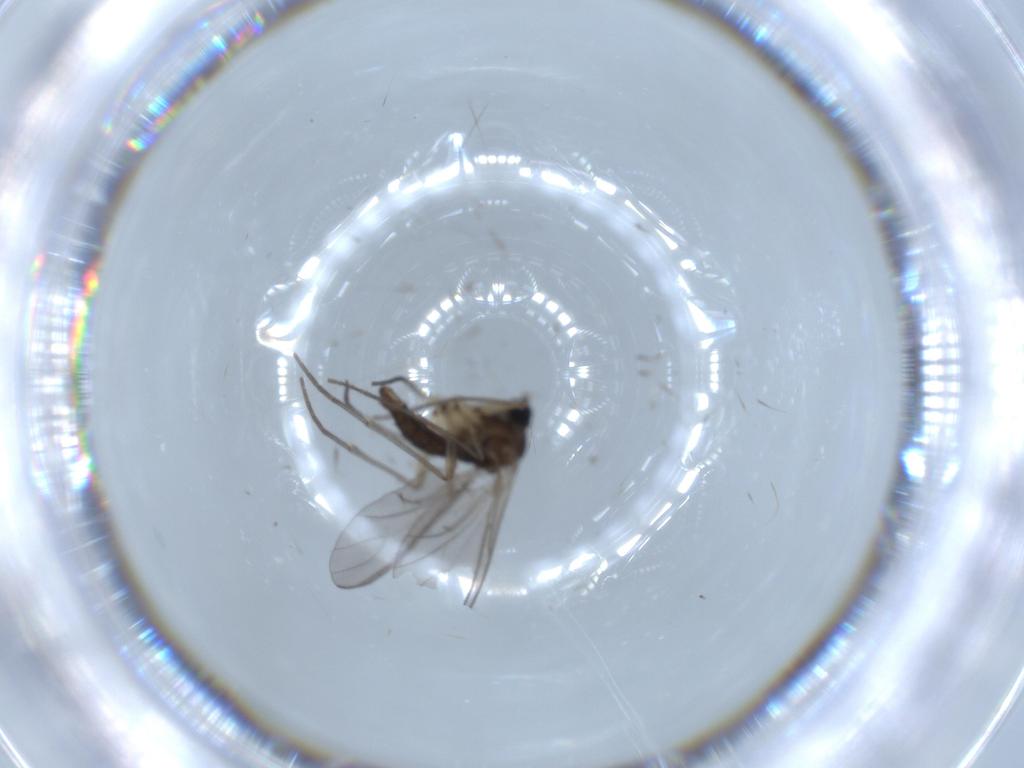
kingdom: Animalia
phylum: Arthropoda
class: Insecta
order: Diptera
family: Sciaridae
